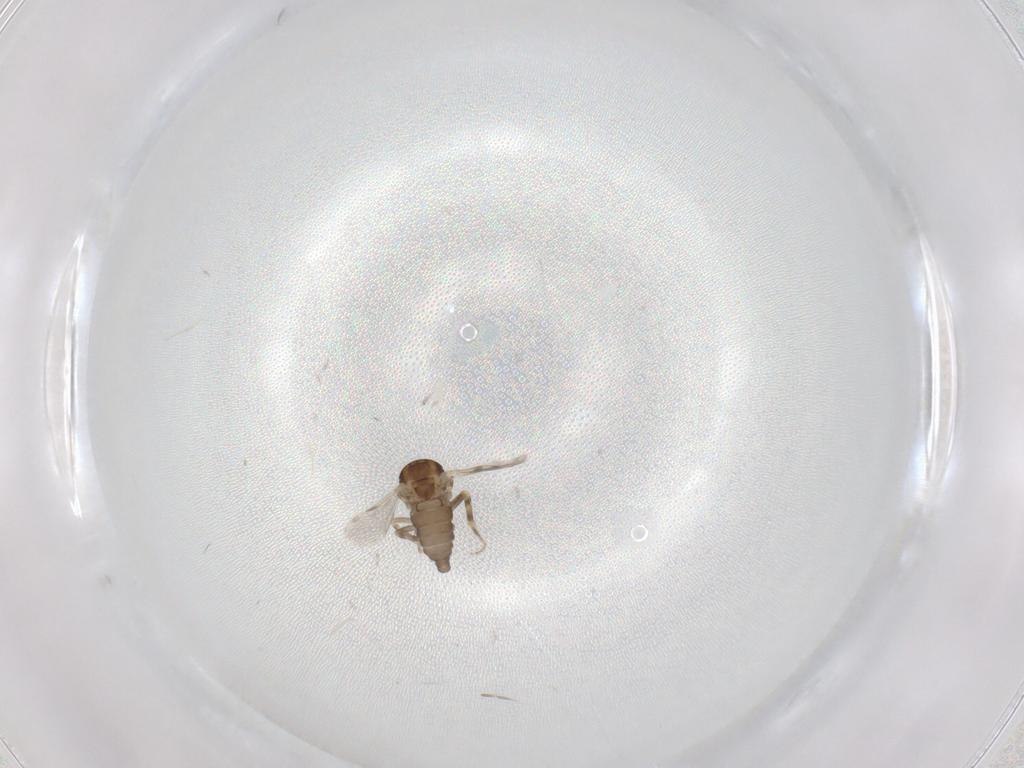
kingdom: Animalia
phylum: Arthropoda
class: Insecta
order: Diptera
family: Ceratopogonidae
